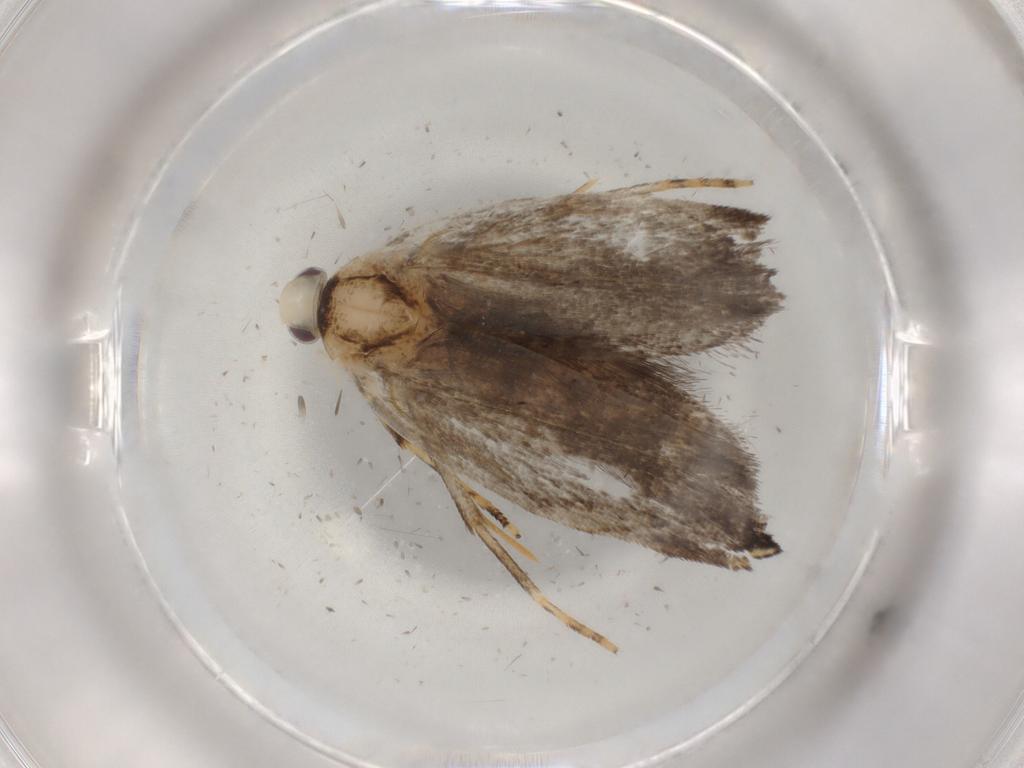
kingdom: Animalia
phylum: Arthropoda
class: Insecta
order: Lepidoptera
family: Gelechiidae
